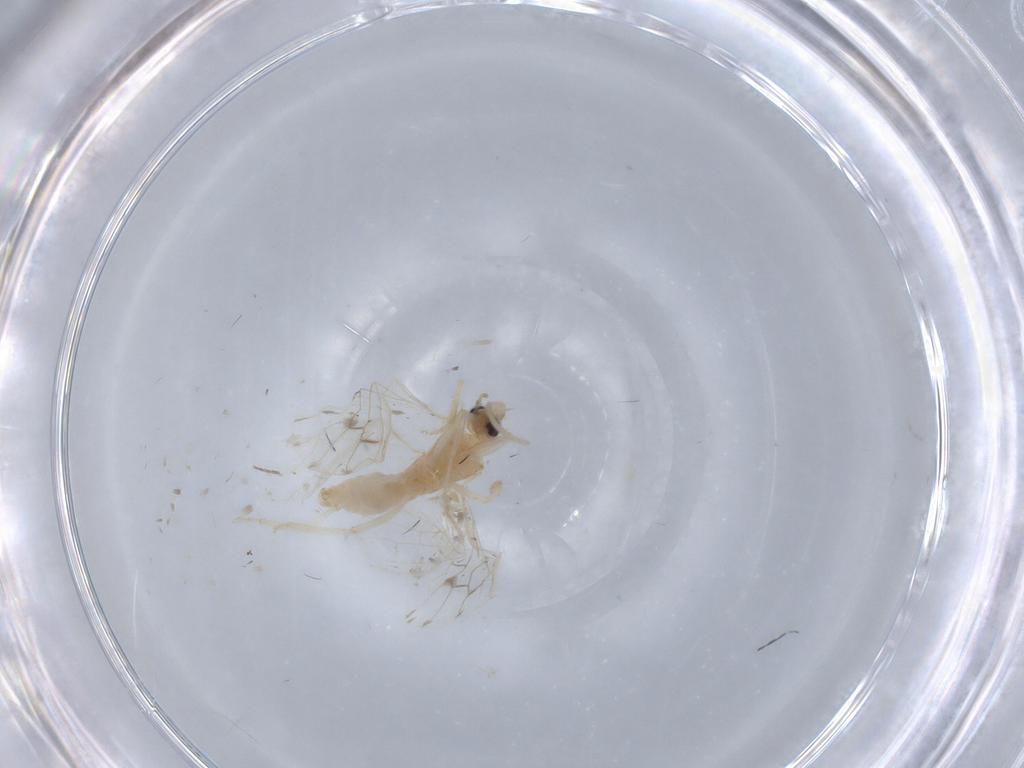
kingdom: Animalia
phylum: Arthropoda
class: Insecta
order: Neuroptera
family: Coniopterygidae
